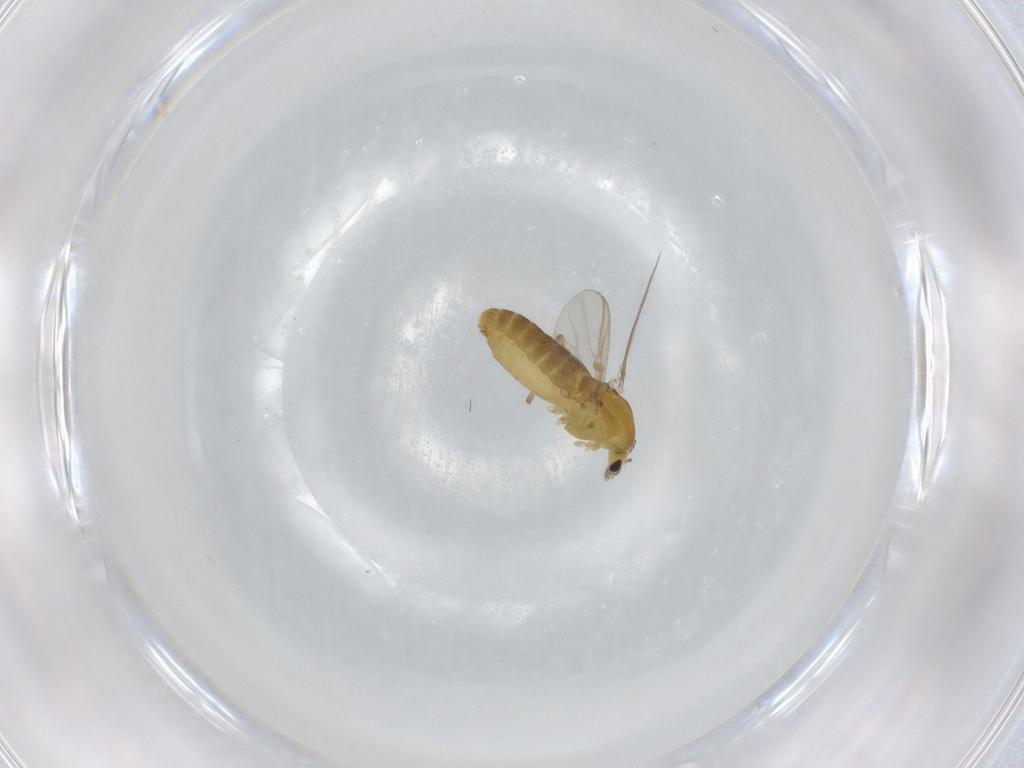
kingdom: Animalia
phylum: Arthropoda
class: Insecta
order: Diptera
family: Chironomidae
